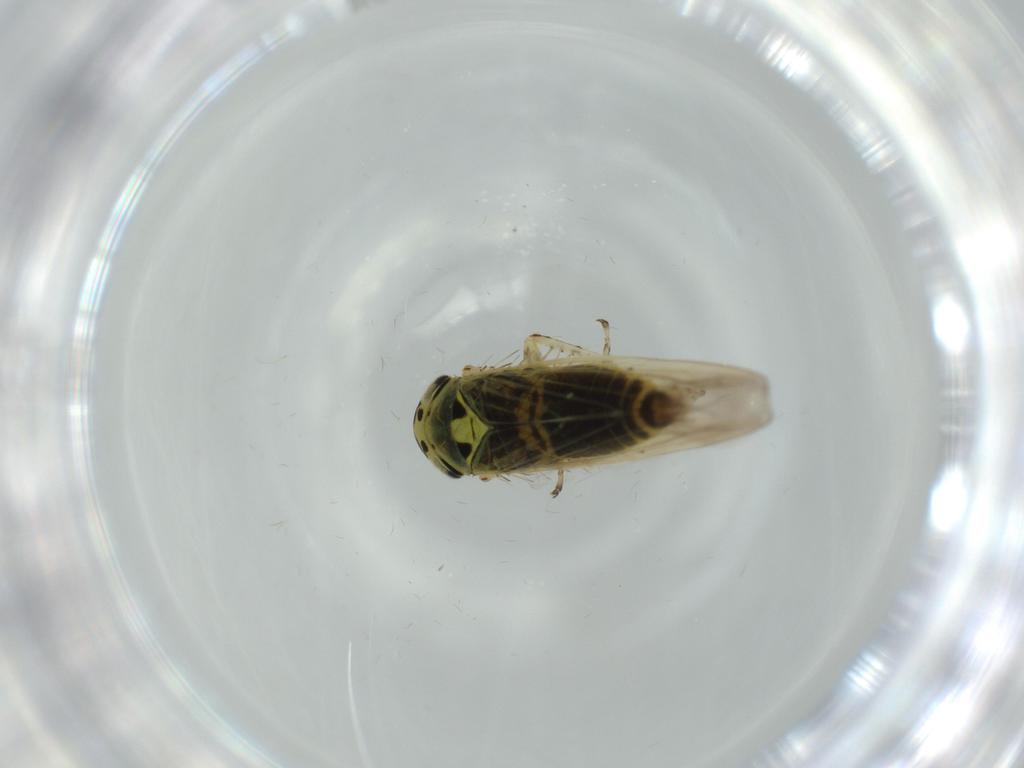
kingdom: Animalia
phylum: Arthropoda
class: Insecta
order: Hemiptera
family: Cicadellidae
